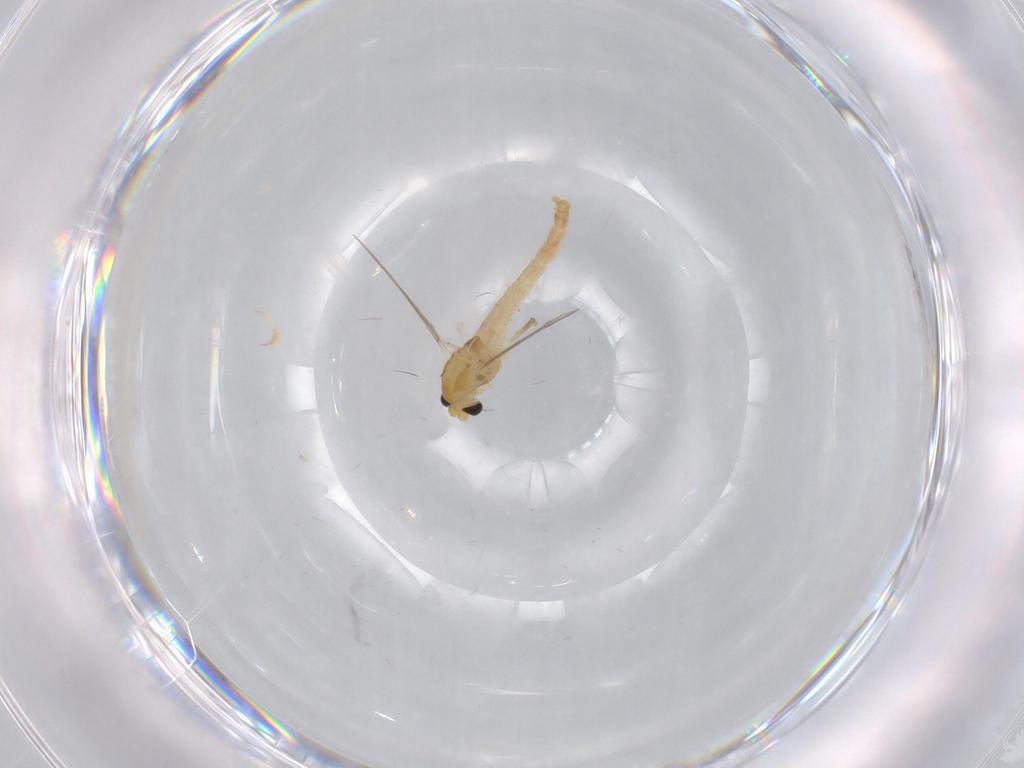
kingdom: Animalia
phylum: Arthropoda
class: Insecta
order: Diptera
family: Chironomidae
